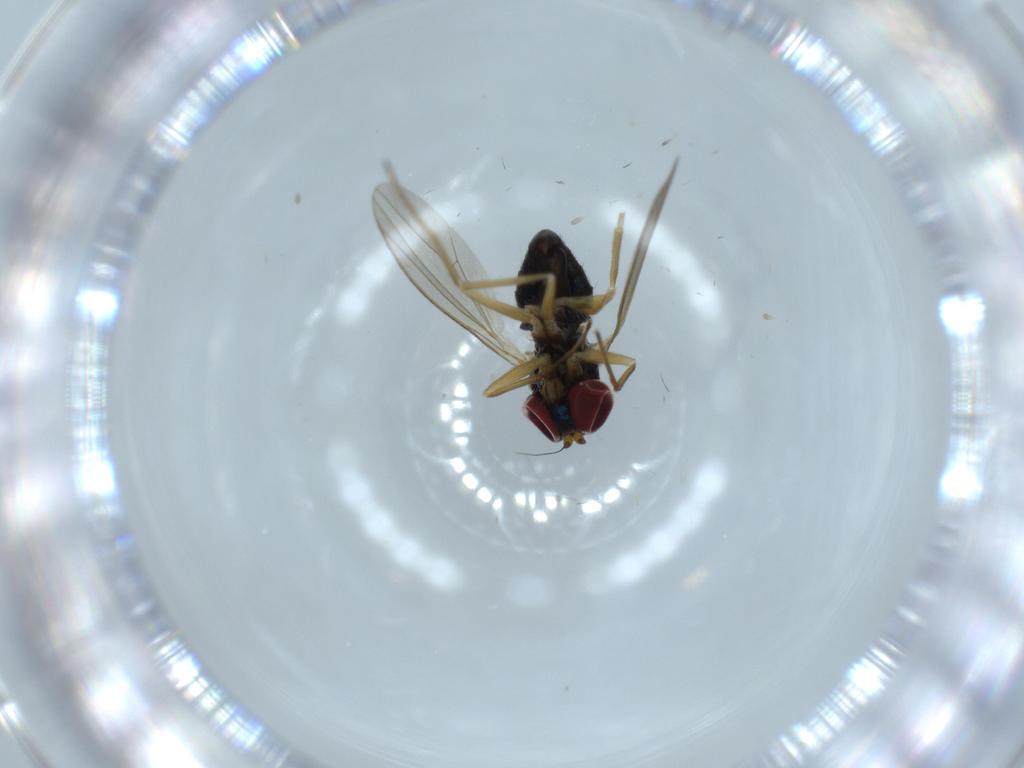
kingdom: Animalia
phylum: Arthropoda
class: Insecta
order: Diptera
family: Dolichopodidae
